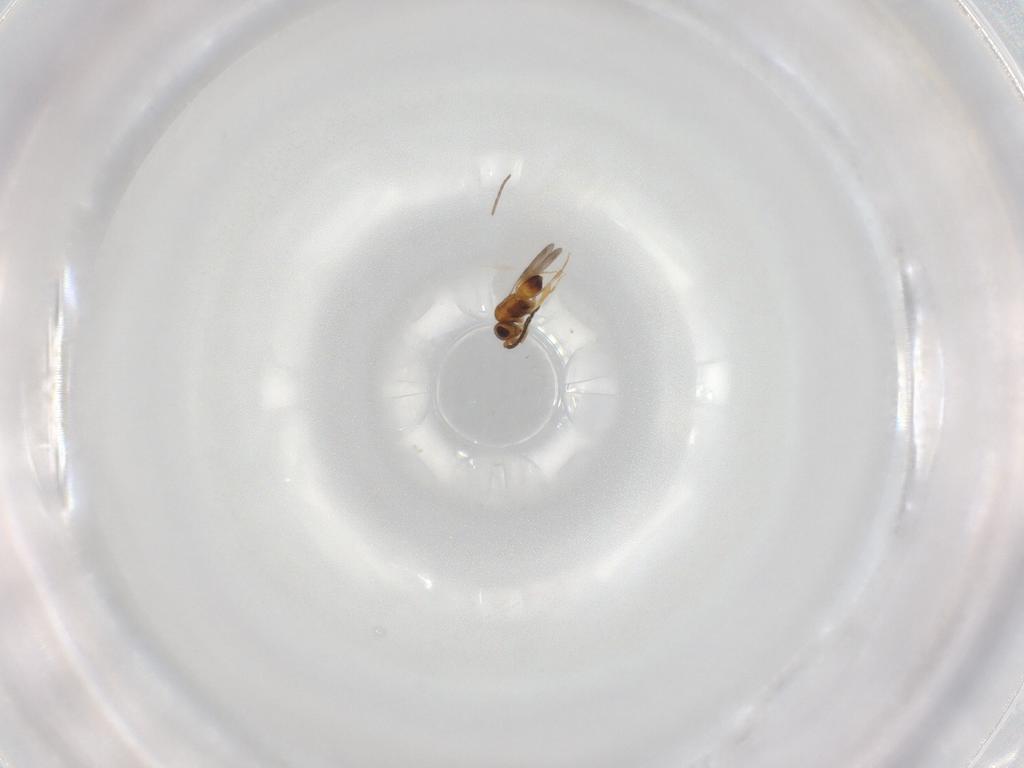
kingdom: Animalia
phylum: Arthropoda
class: Insecta
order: Hymenoptera
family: Ceraphronidae
